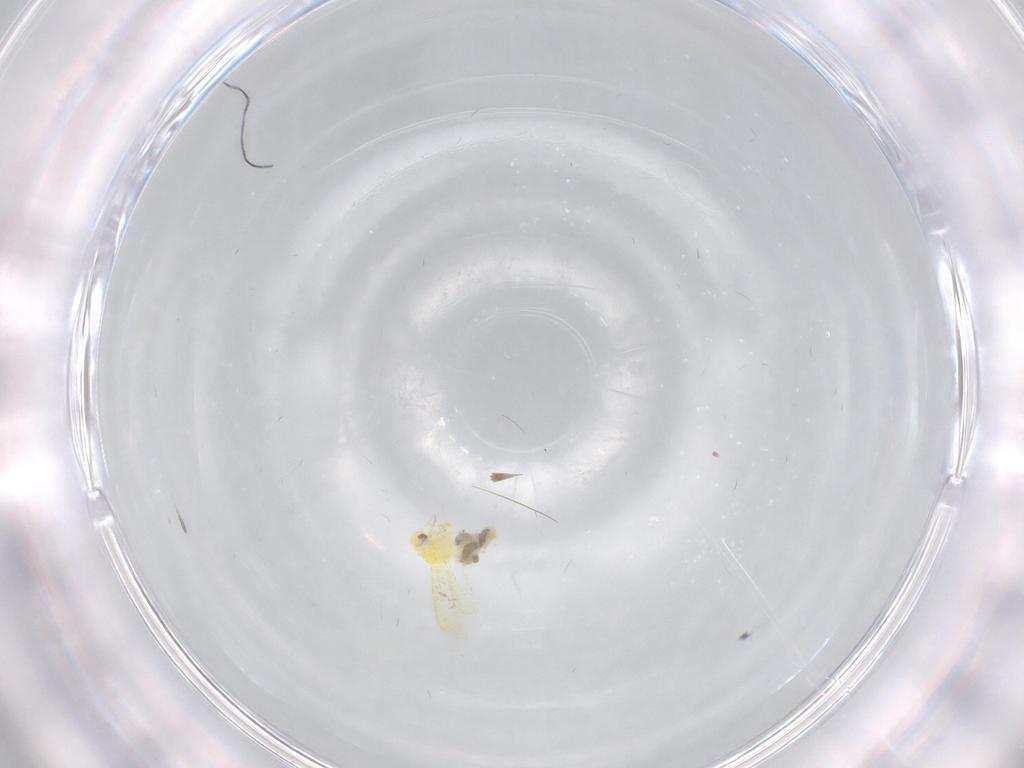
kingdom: Animalia
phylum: Arthropoda
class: Insecta
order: Hemiptera
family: Aleyrodidae
